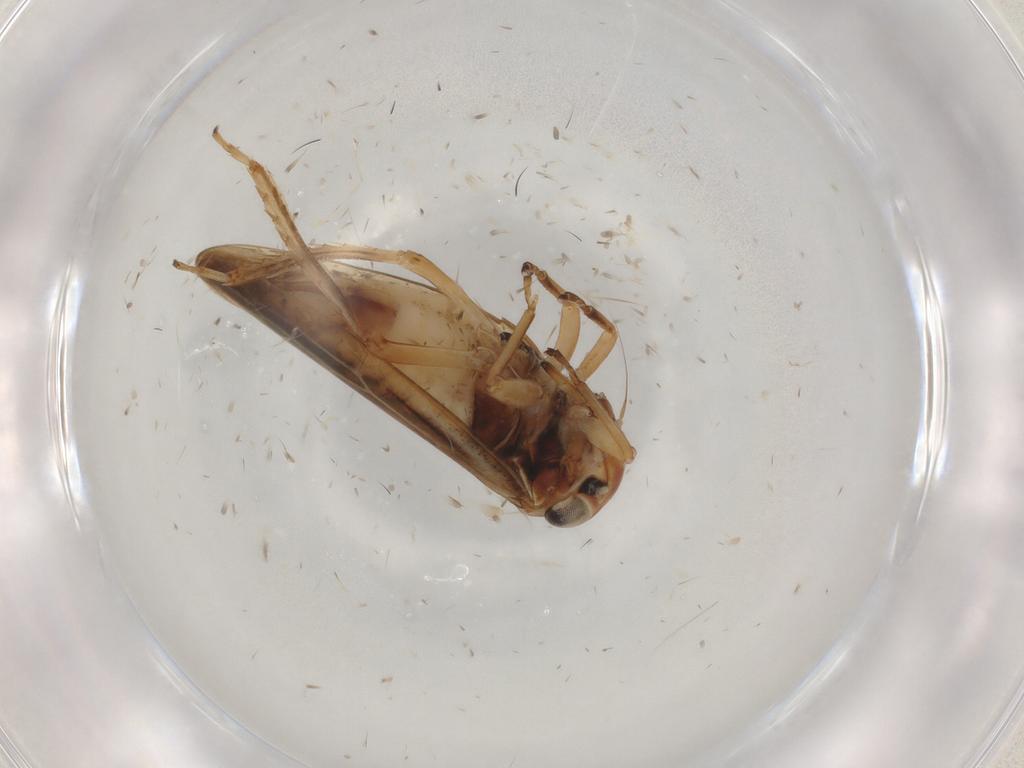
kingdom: Animalia
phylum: Arthropoda
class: Insecta
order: Hemiptera
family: Cicadellidae
